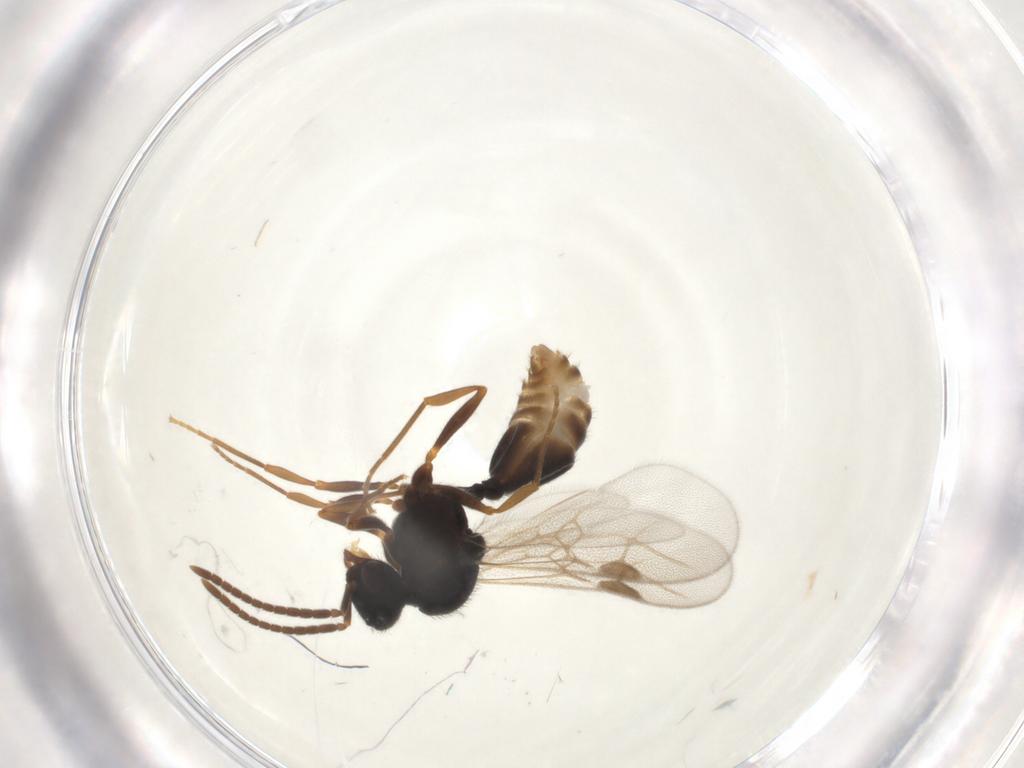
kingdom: Animalia
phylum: Arthropoda
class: Insecta
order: Hymenoptera
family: Formicidae
